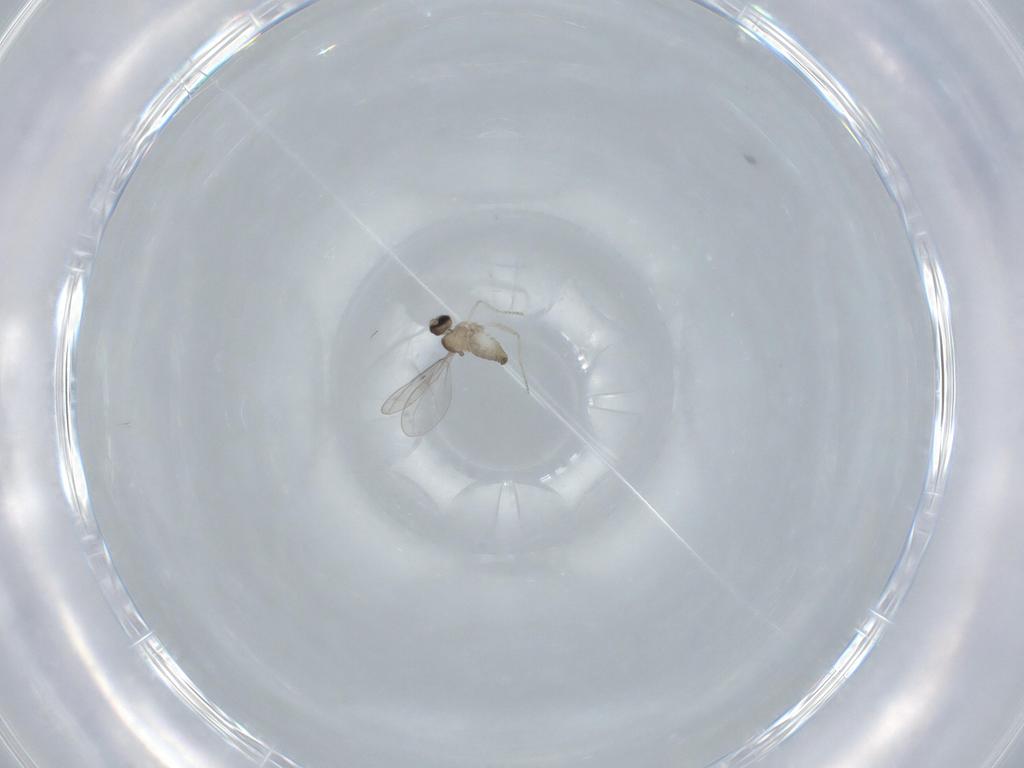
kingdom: Animalia
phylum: Arthropoda
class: Insecta
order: Diptera
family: Cecidomyiidae
